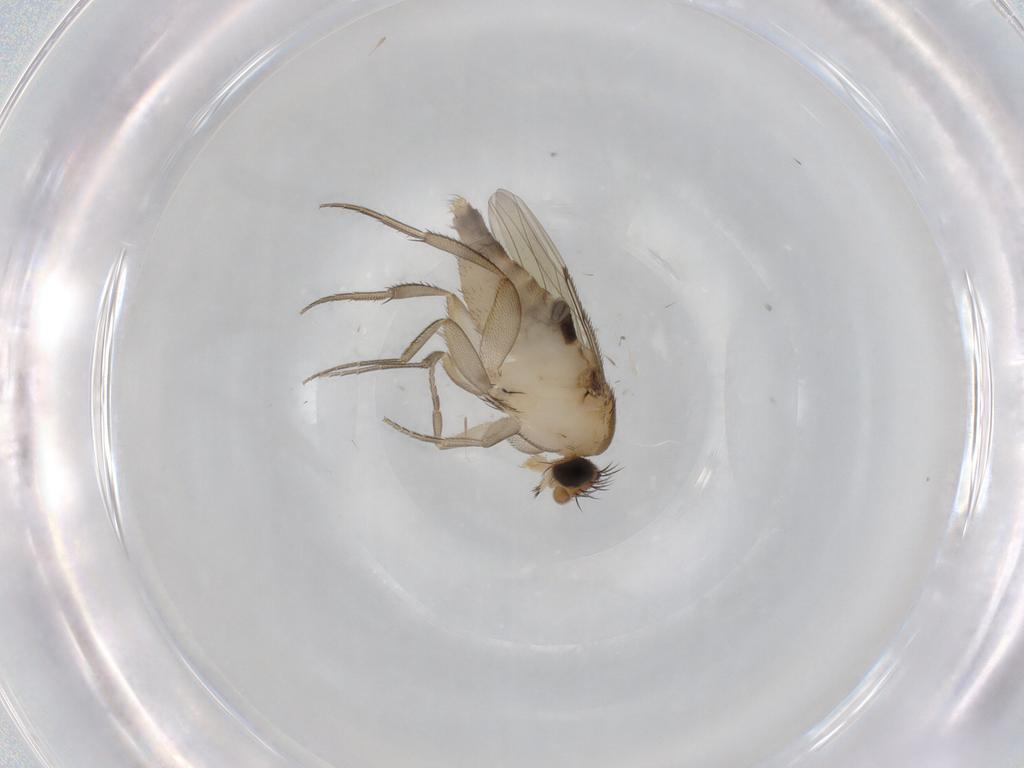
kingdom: Animalia
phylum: Arthropoda
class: Insecta
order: Diptera
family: Phoridae
